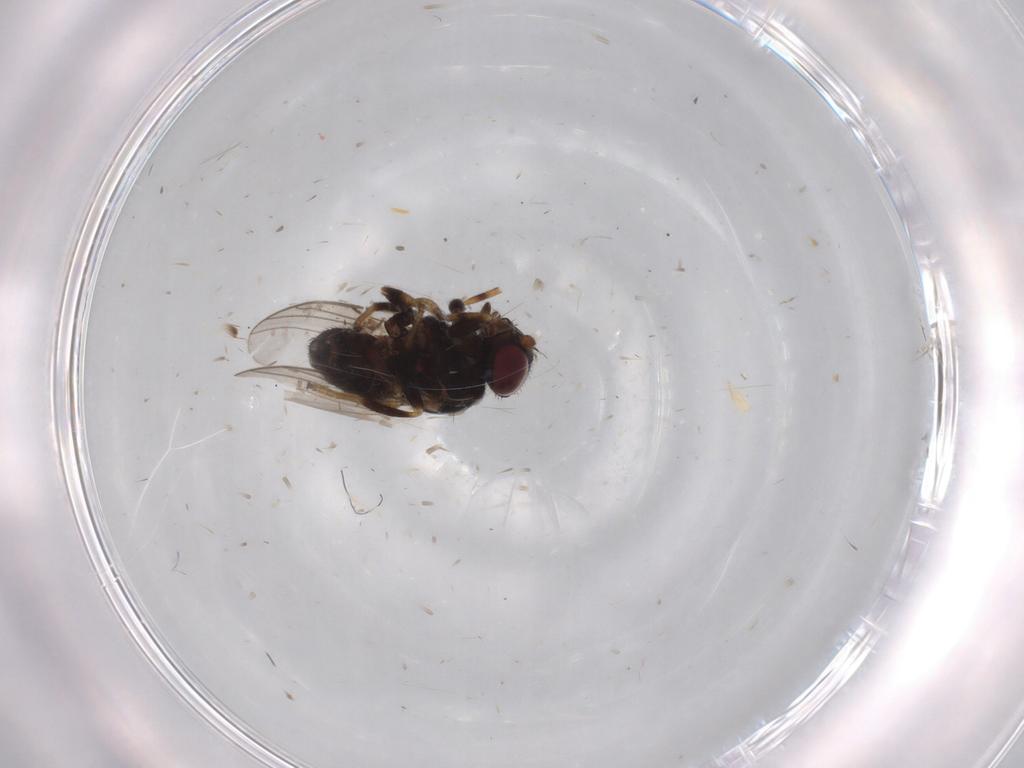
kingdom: Animalia
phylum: Arthropoda
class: Insecta
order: Diptera
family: Chloropidae
